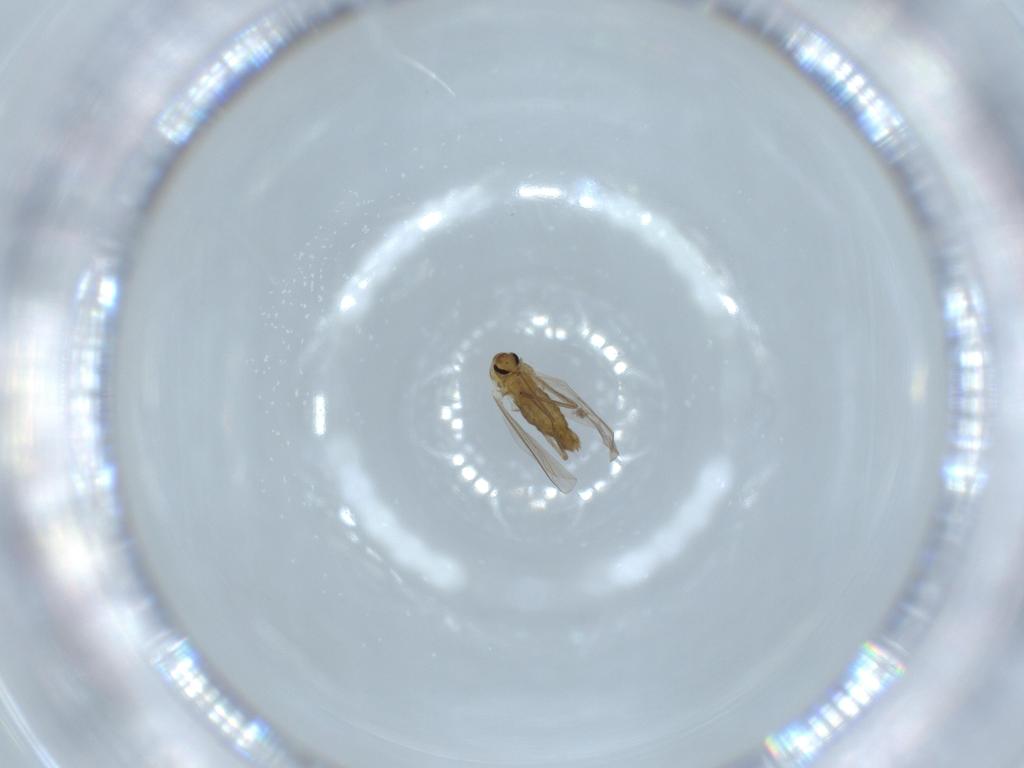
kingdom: Animalia
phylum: Arthropoda
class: Insecta
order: Diptera
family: Chironomidae
